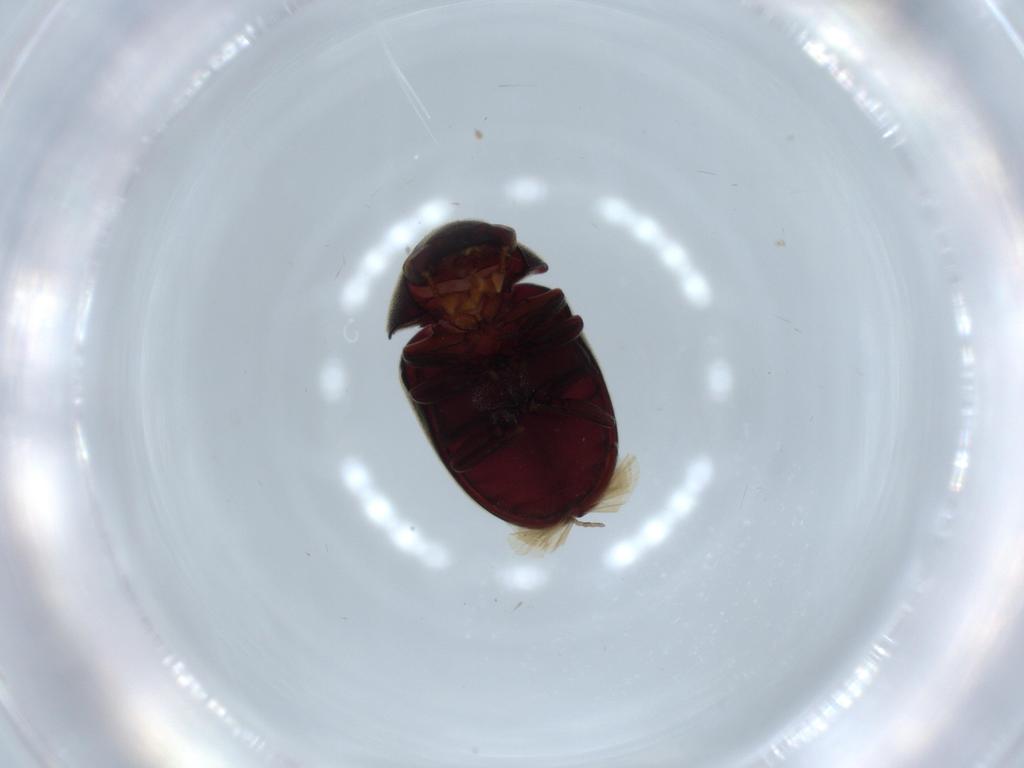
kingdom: Animalia
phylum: Arthropoda
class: Insecta
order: Coleoptera
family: Ptinidae
